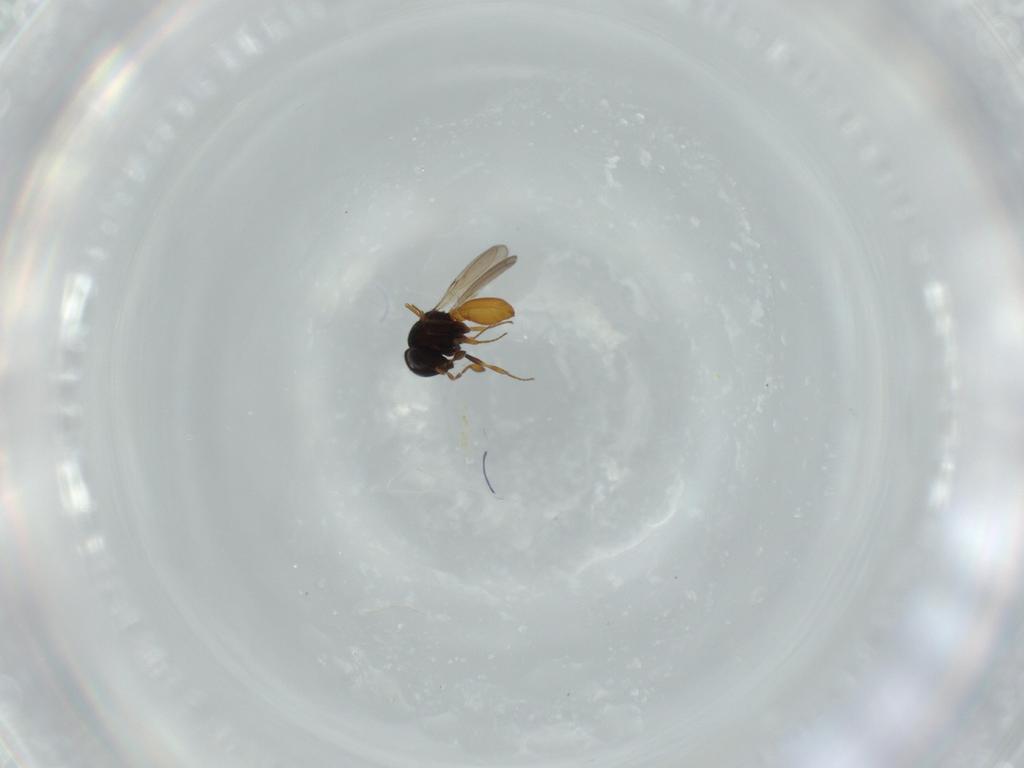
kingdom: Animalia
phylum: Arthropoda
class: Insecta
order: Hymenoptera
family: Scelionidae
